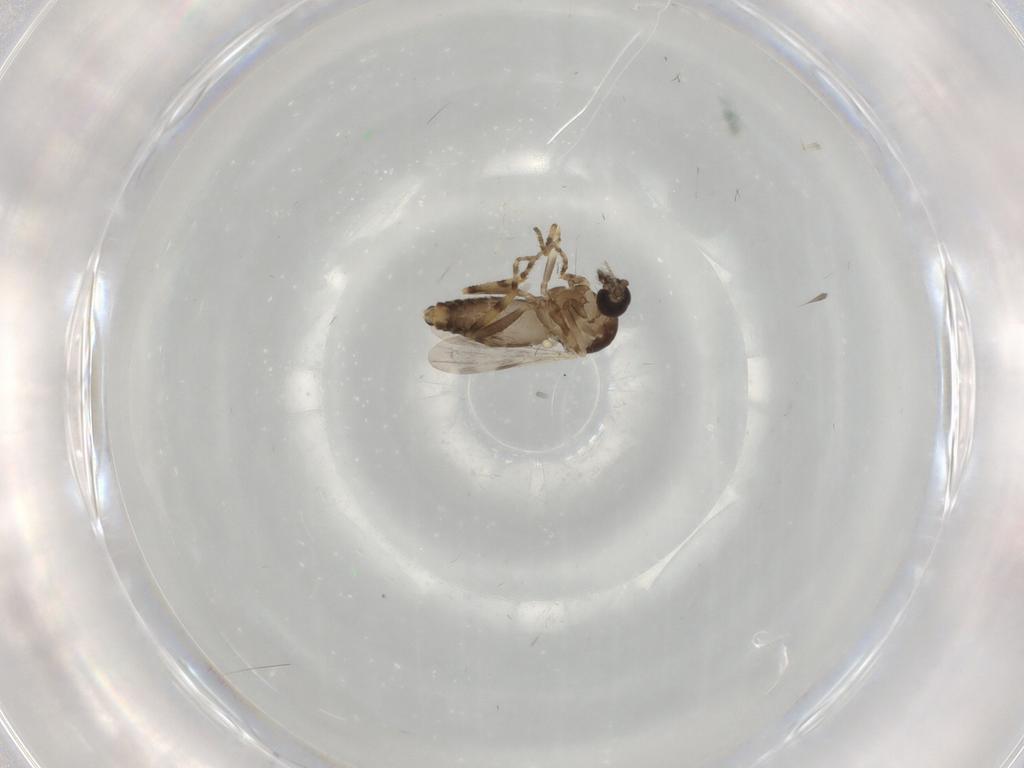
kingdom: Animalia
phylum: Arthropoda
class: Insecta
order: Diptera
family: Ceratopogonidae
